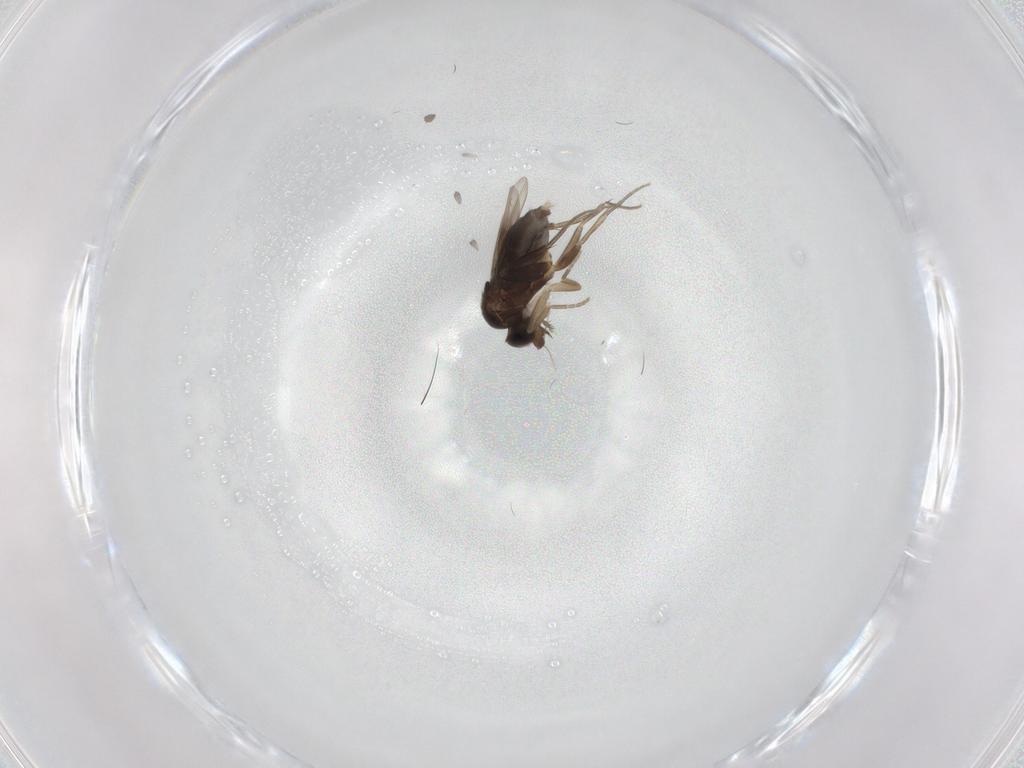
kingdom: Animalia
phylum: Arthropoda
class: Insecta
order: Diptera
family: Phoridae
